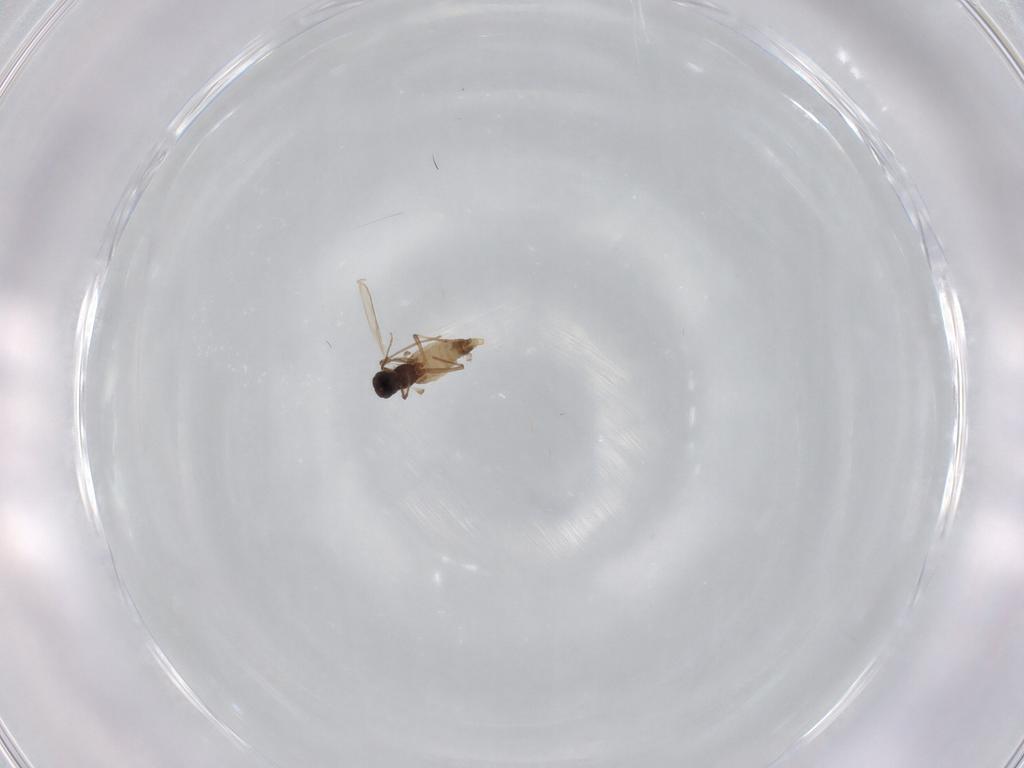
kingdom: Animalia
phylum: Arthropoda
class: Insecta
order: Diptera
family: Chironomidae
